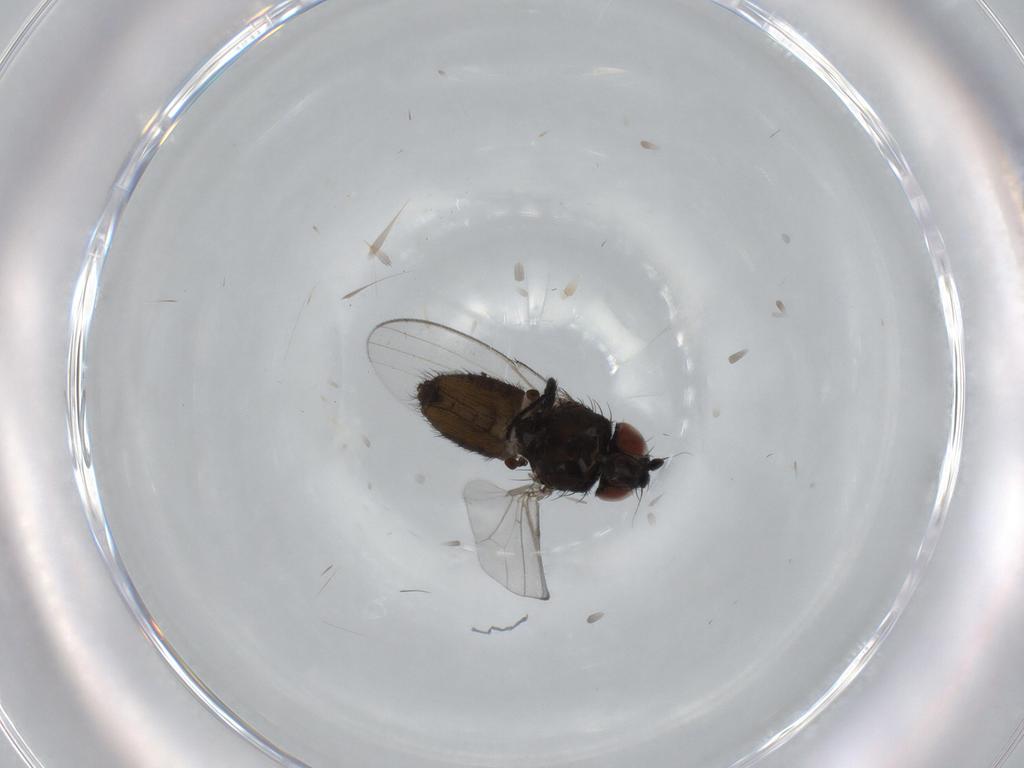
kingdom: Animalia
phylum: Arthropoda
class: Insecta
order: Diptera
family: Milichiidae
